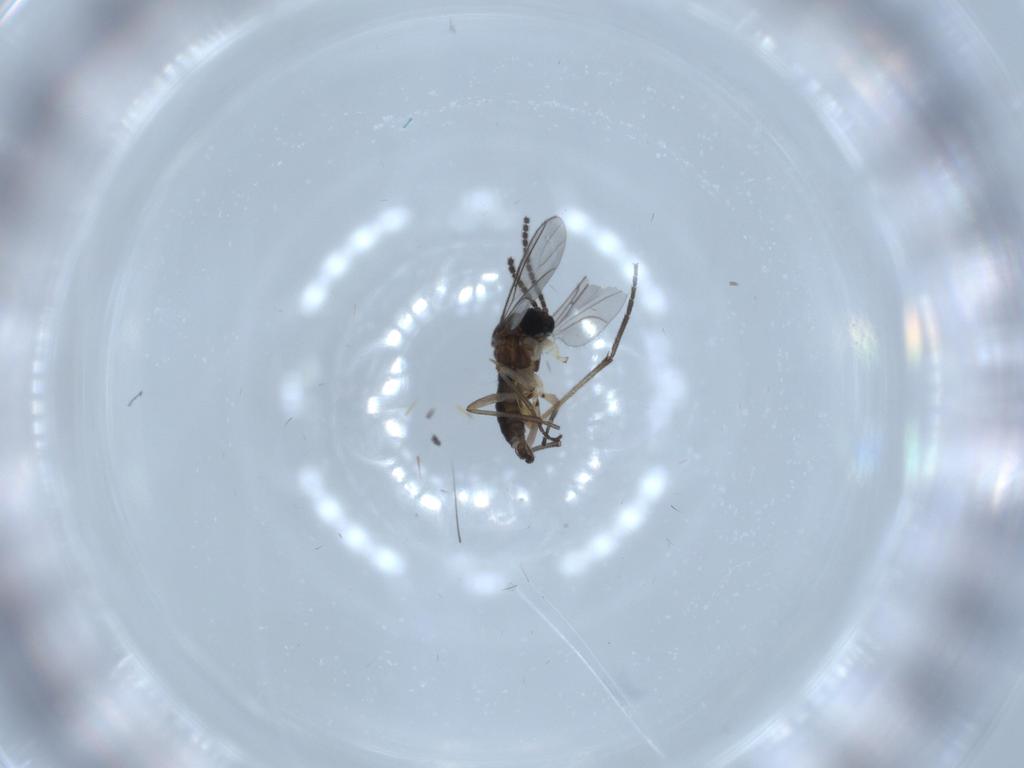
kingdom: Animalia
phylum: Arthropoda
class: Insecta
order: Diptera
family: Sciaridae
